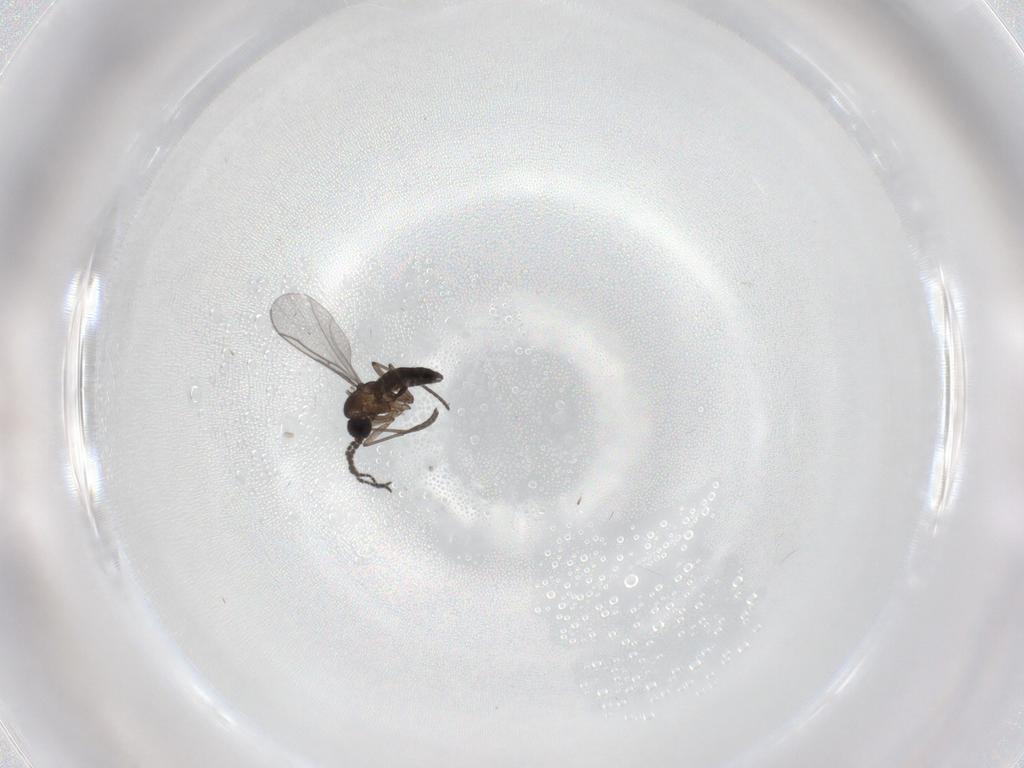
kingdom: Animalia
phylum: Arthropoda
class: Insecta
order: Diptera
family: Sciaridae
